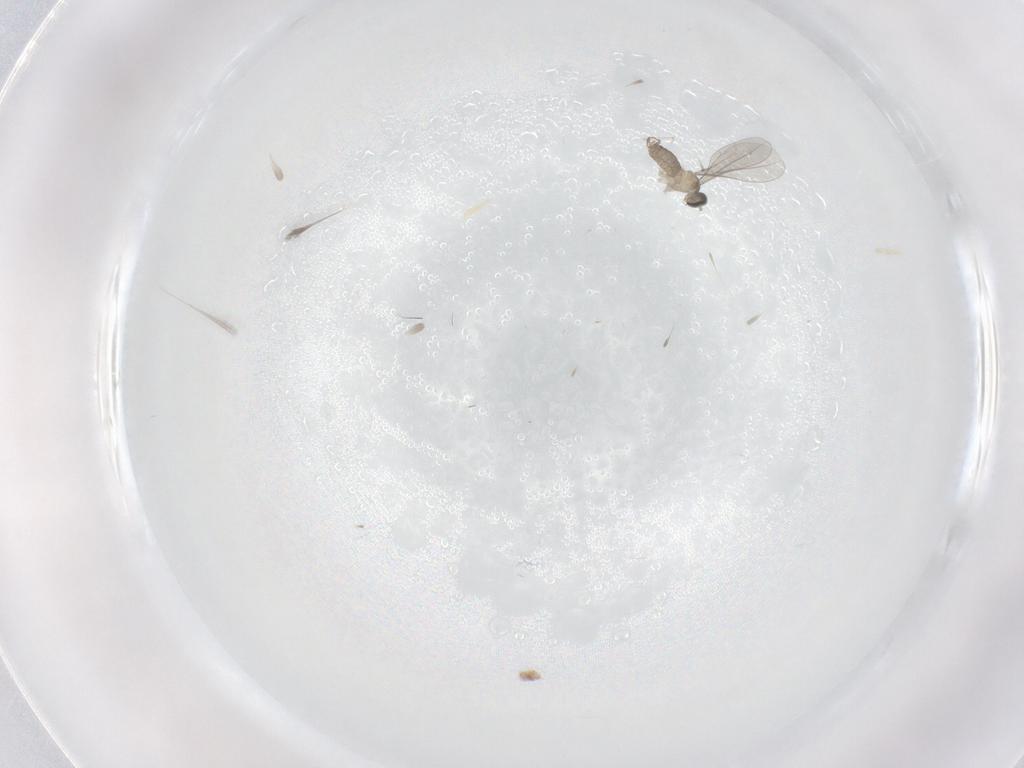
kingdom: Animalia
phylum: Arthropoda
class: Insecta
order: Diptera
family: Cecidomyiidae
